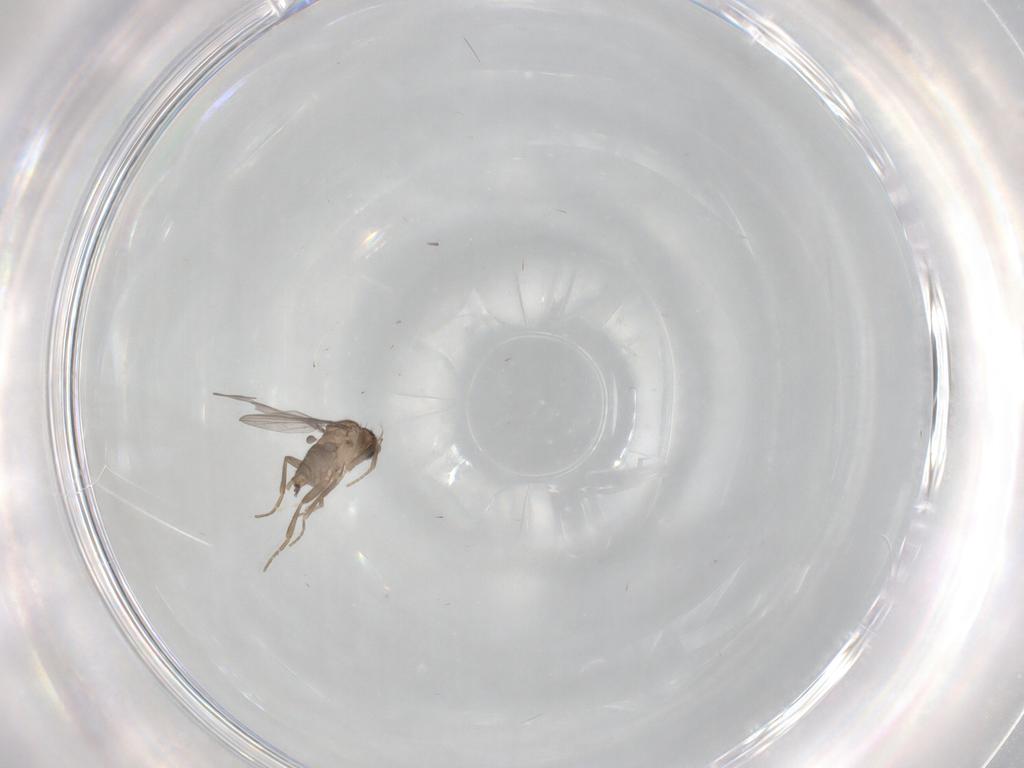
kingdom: Animalia
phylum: Arthropoda
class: Insecta
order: Diptera
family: Cecidomyiidae
